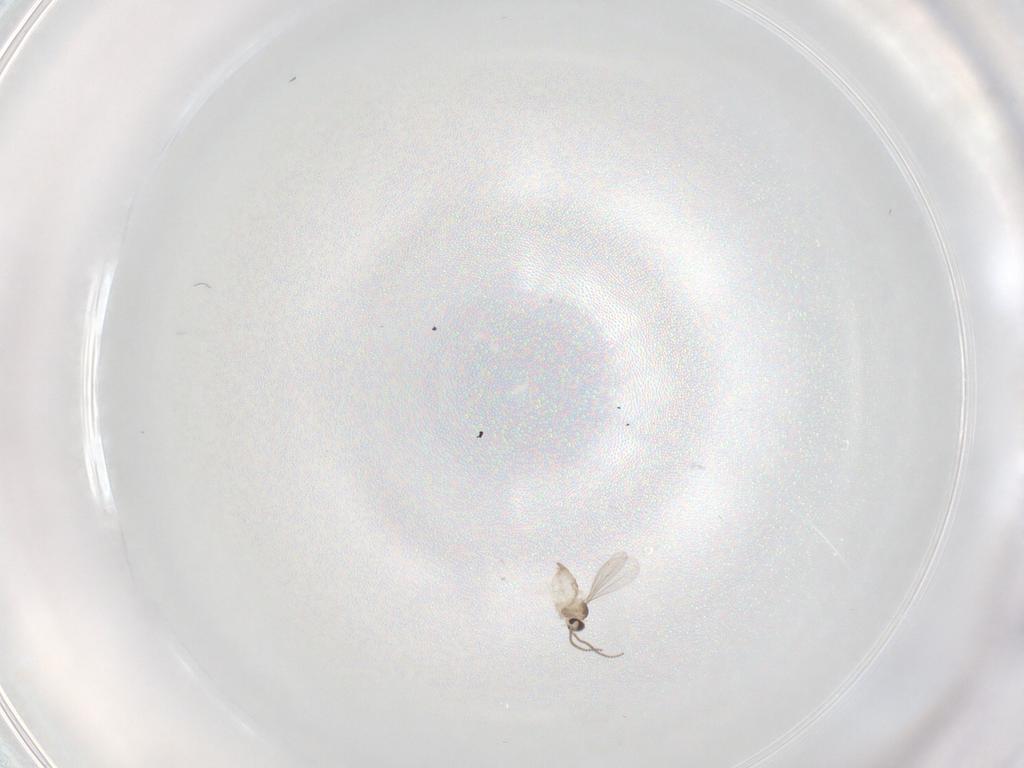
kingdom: Animalia
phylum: Arthropoda
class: Insecta
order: Diptera
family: Cecidomyiidae
